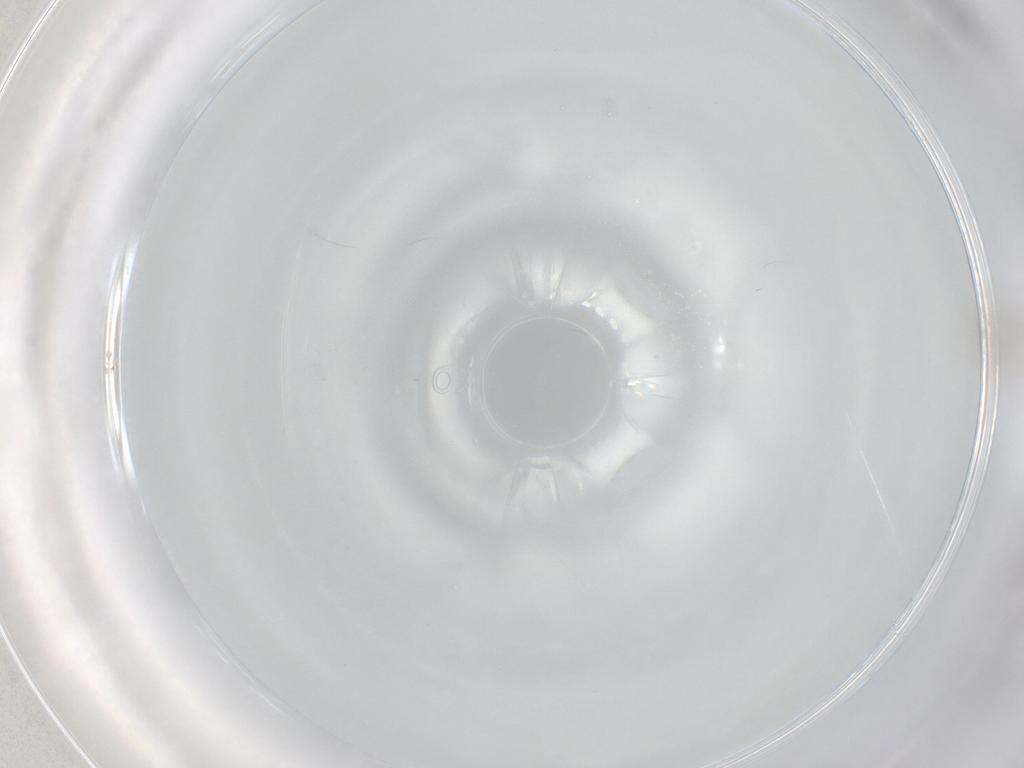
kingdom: Animalia
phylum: Arthropoda
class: Insecta
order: Diptera
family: Ceratopogonidae
